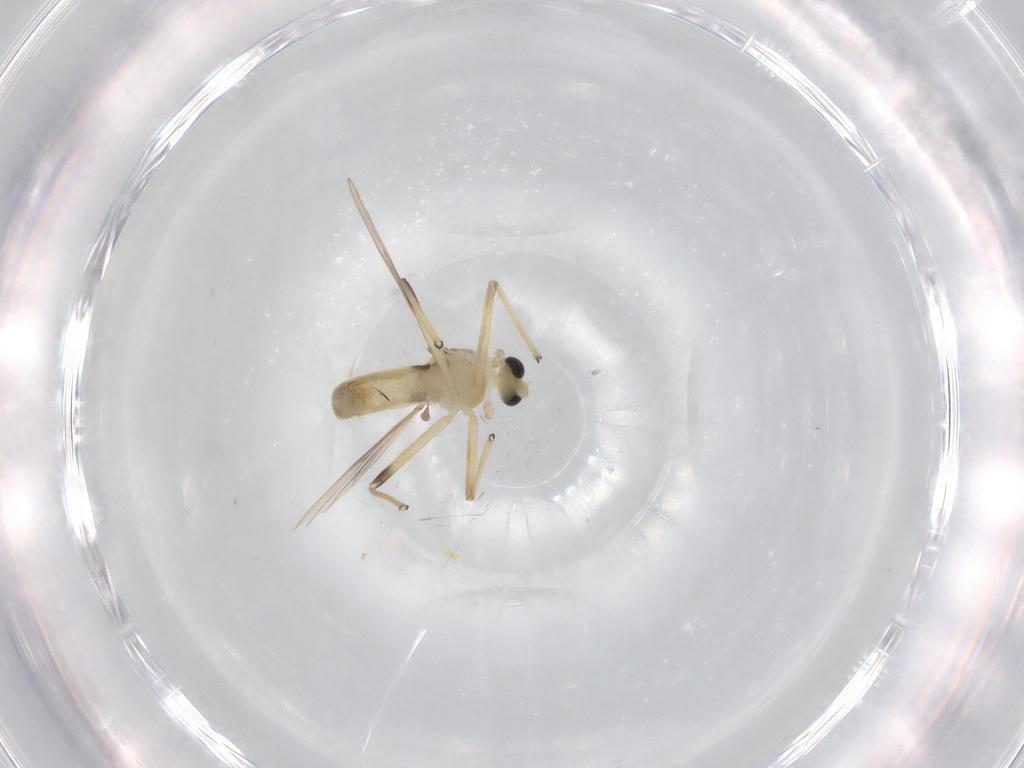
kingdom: Animalia
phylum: Arthropoda
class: Insecta
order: Diptera
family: Chironomidae
